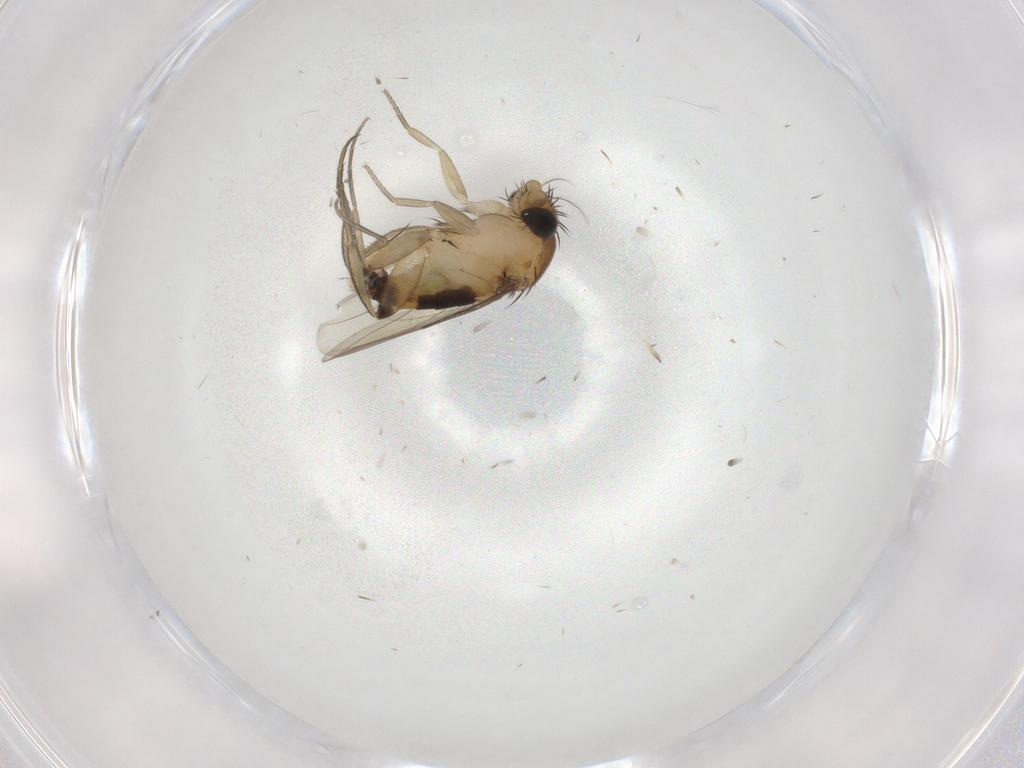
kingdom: Animalia
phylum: Arthropoda
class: Insecta
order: Diptera
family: Phoridae
